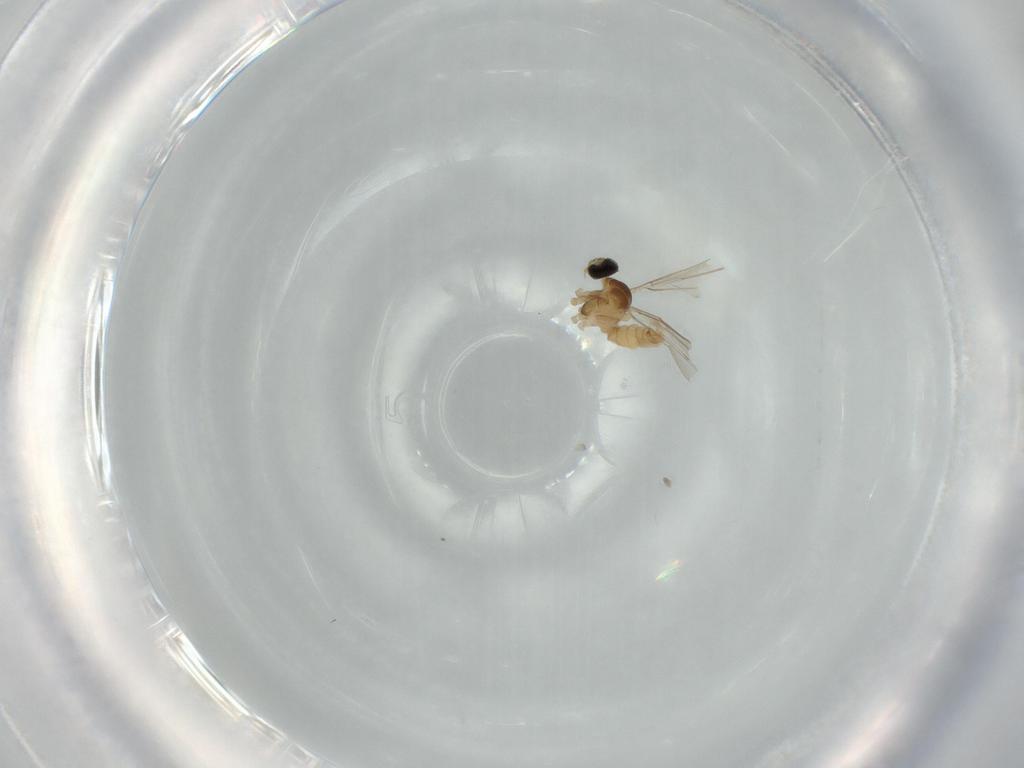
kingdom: Animalia
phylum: Arthropoda
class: Insecta
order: Diptera
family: Cecidomyiidae
